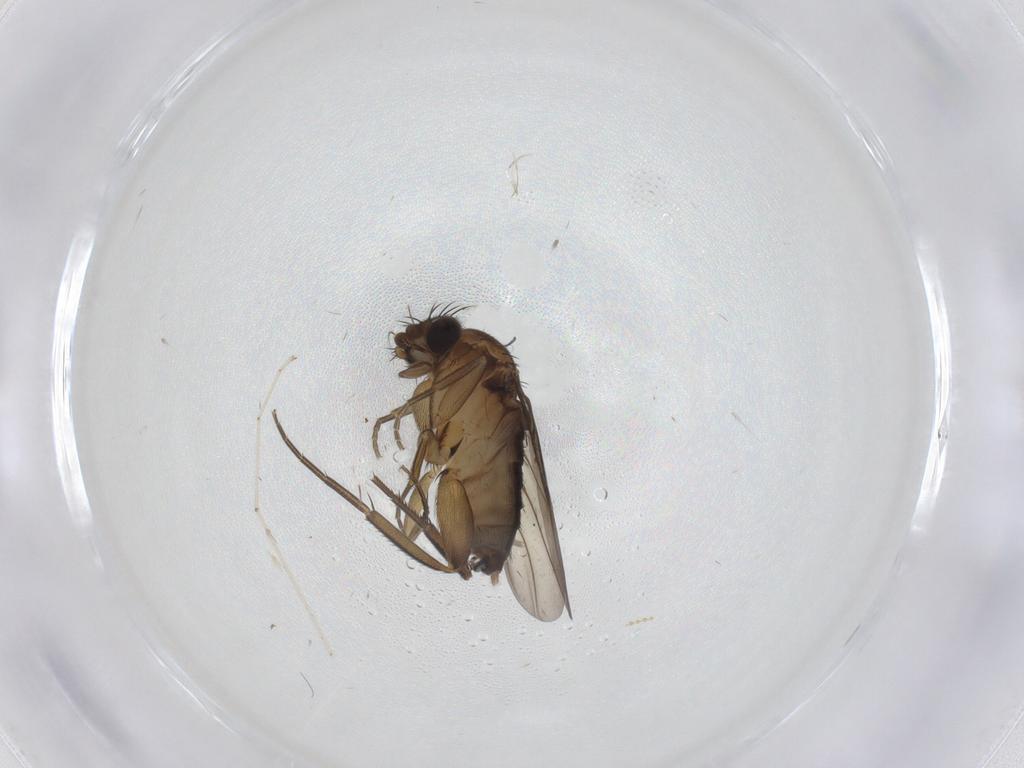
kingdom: Animalia
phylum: Arthropoda
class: Insecta
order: Diptera
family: Phoridae
